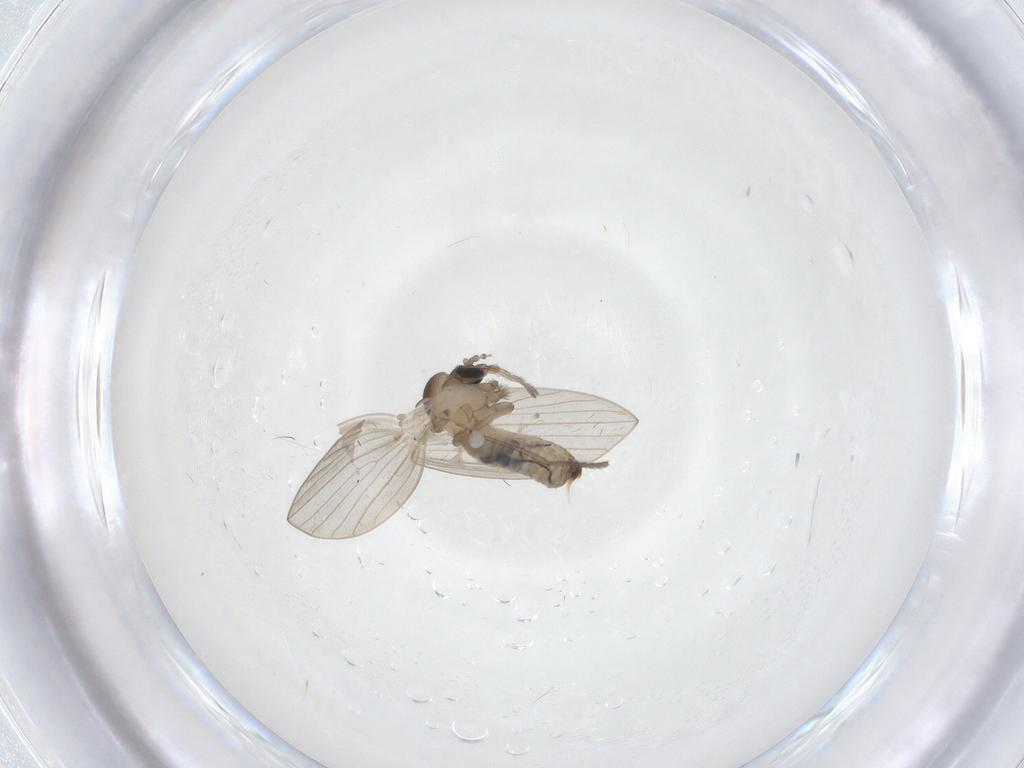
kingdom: Animalia
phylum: Arthropoda
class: Insecta
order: Diptera
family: Psychodidae
